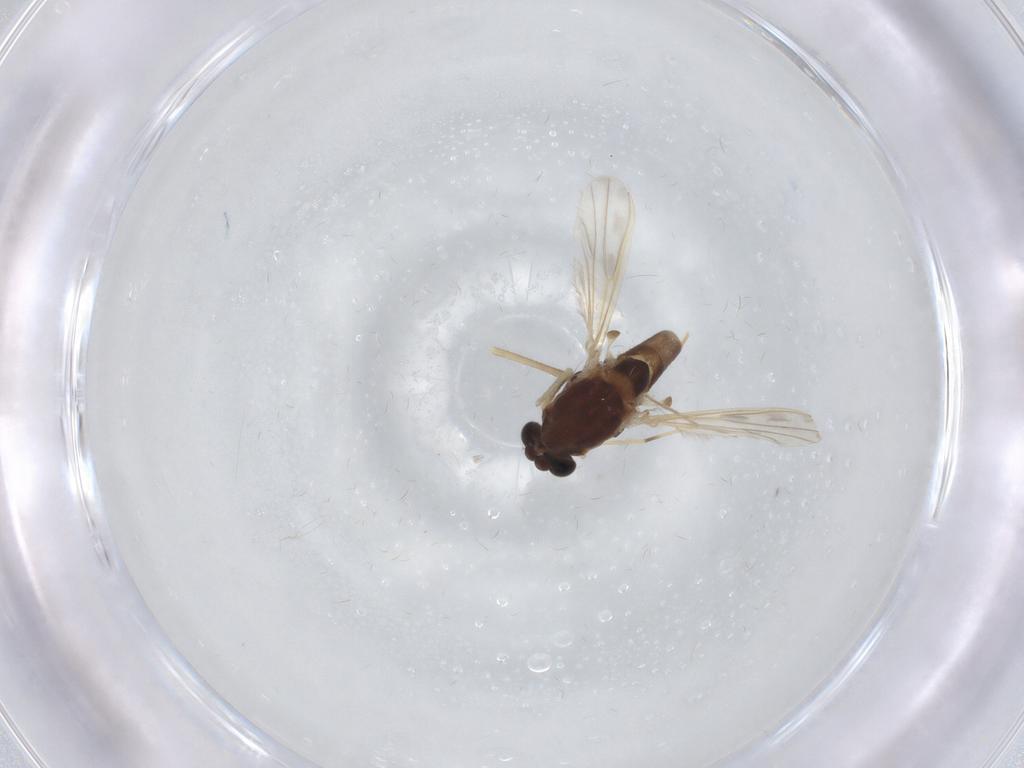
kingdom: Animalia
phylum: Arthropoda
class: Insecta
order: Diptera
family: Chironomidae
